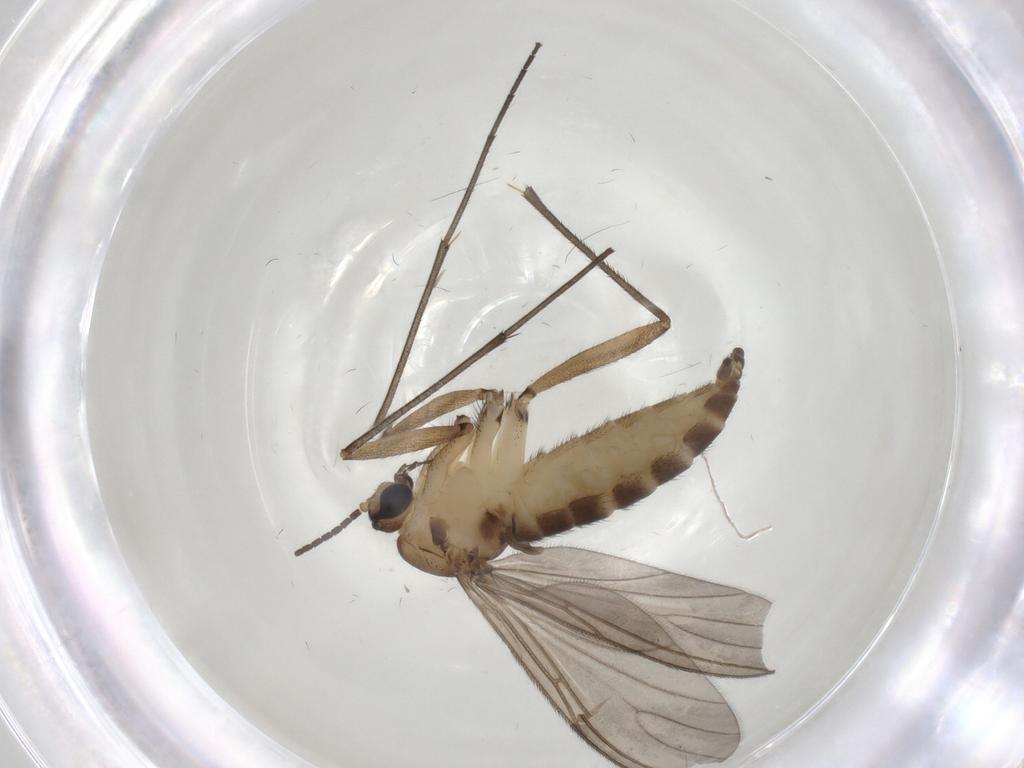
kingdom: Animalia
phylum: Arthropoda
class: Insecta
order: Diptera
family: Sciaridae
